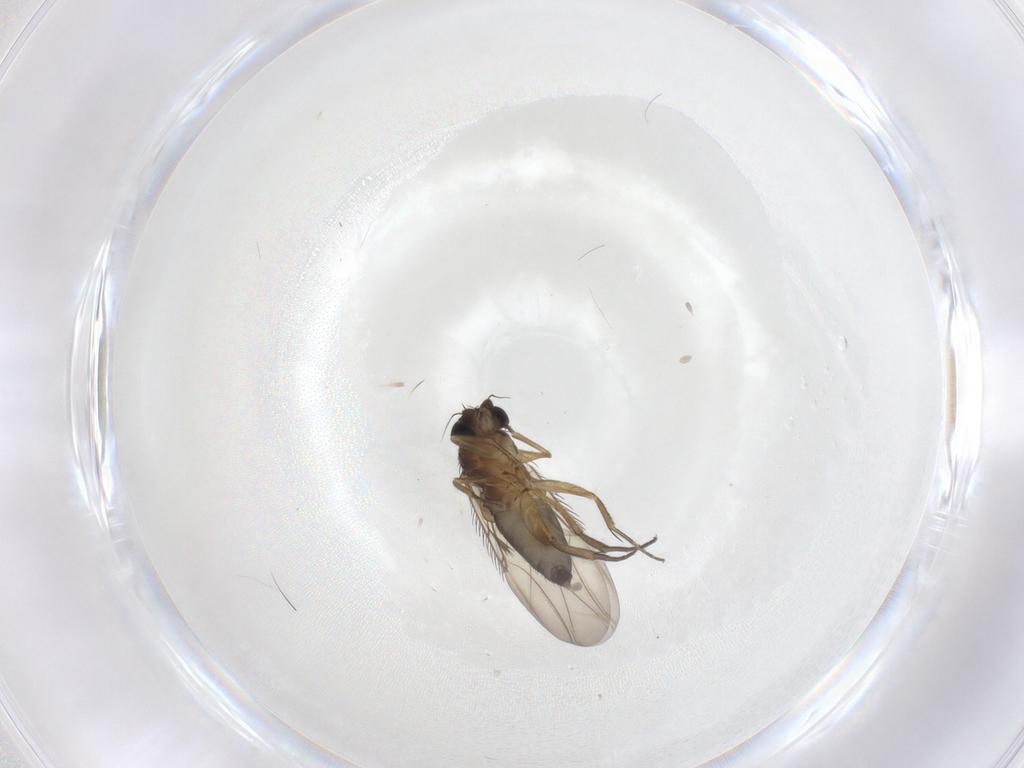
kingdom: Animalia
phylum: Arthropoda
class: Insecta
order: Diptera
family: Phoridae
